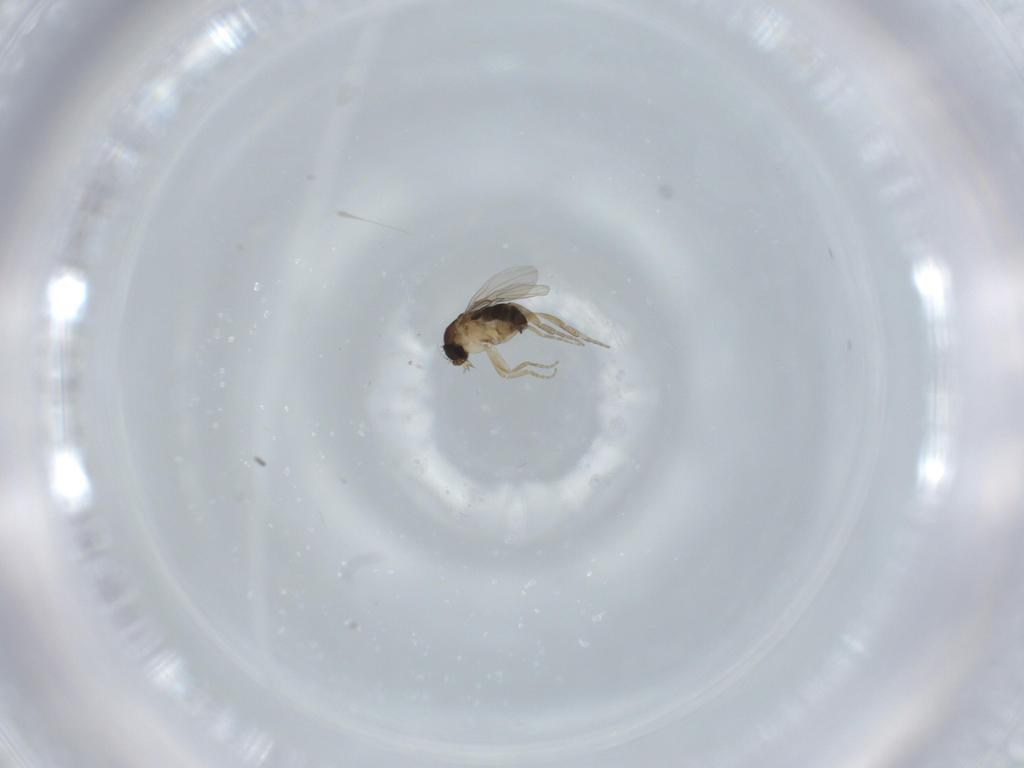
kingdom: Animalia
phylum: Arthropoda
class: Insecta
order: Diptera
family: Phoridae
